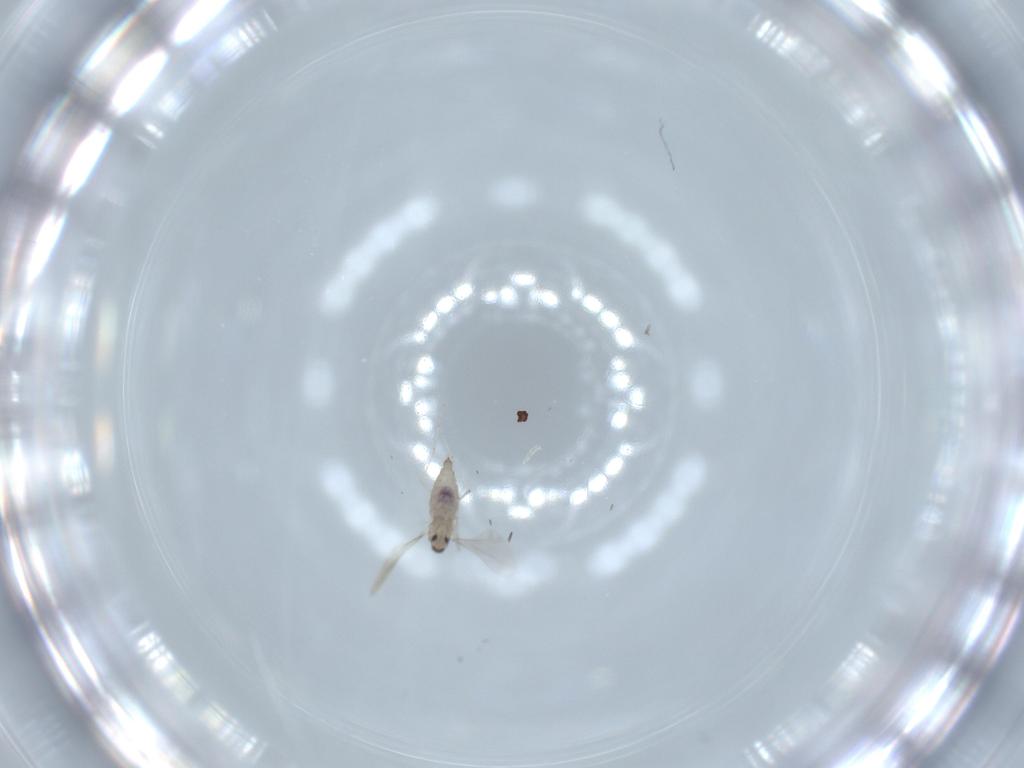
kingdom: Animalia
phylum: Arthropoda
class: Insecta
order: Diptera
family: Cecidomyiidae
